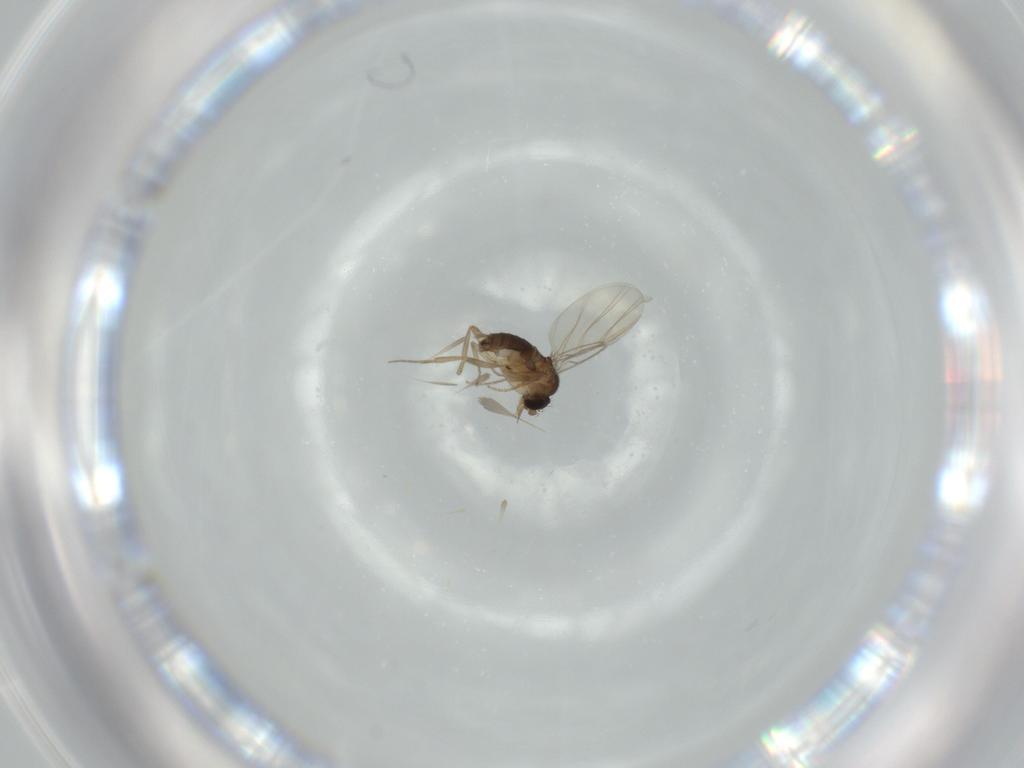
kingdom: Animalia
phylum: Arthropoda
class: Insecta
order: Diptera
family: Phoridae
